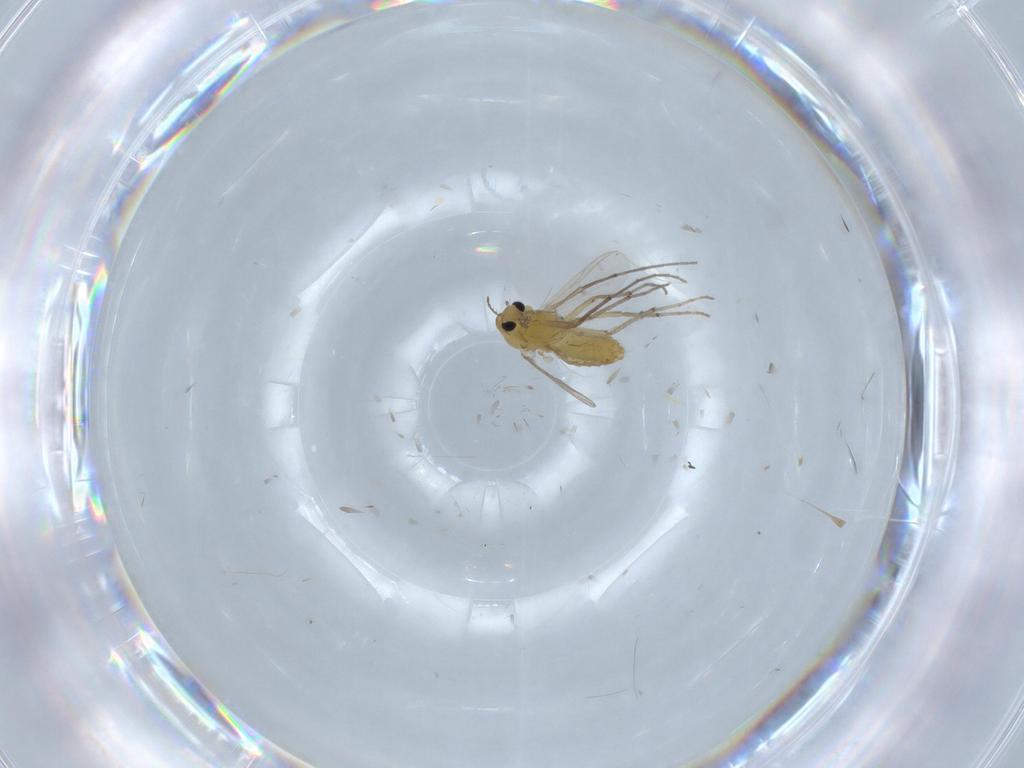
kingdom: Animalia
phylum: Arthropoda
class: Insecta
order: Diptera
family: Chironomidae
